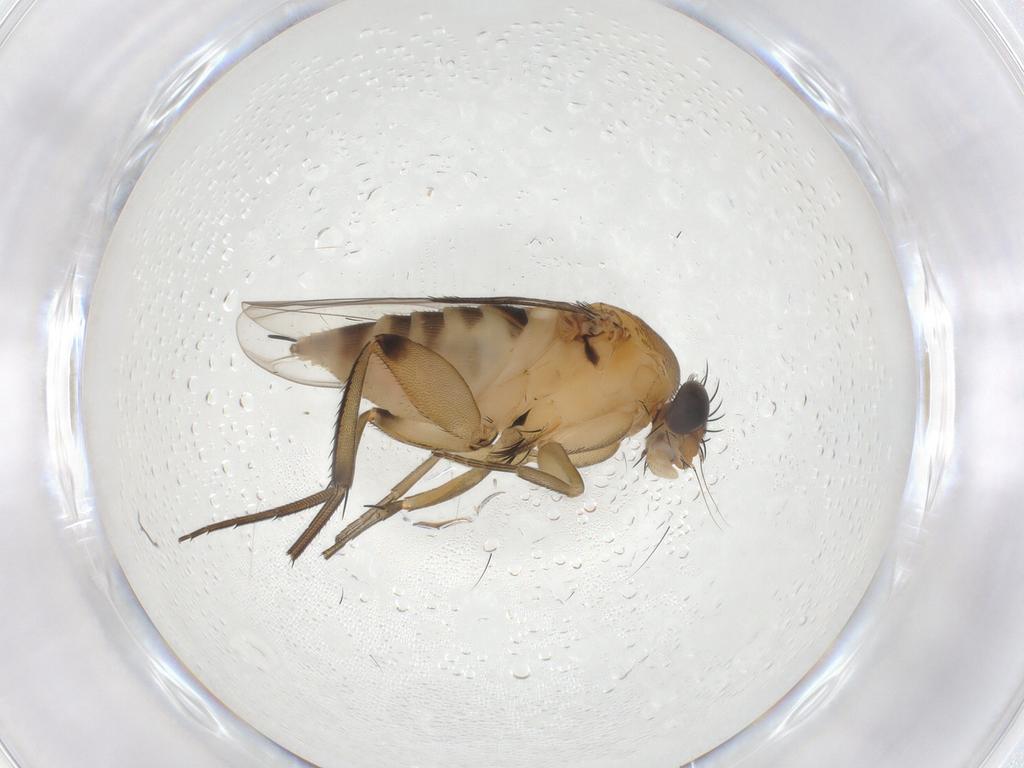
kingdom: Animalia
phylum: Arthropoda
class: Insecta
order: Diptera
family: Phoridae
